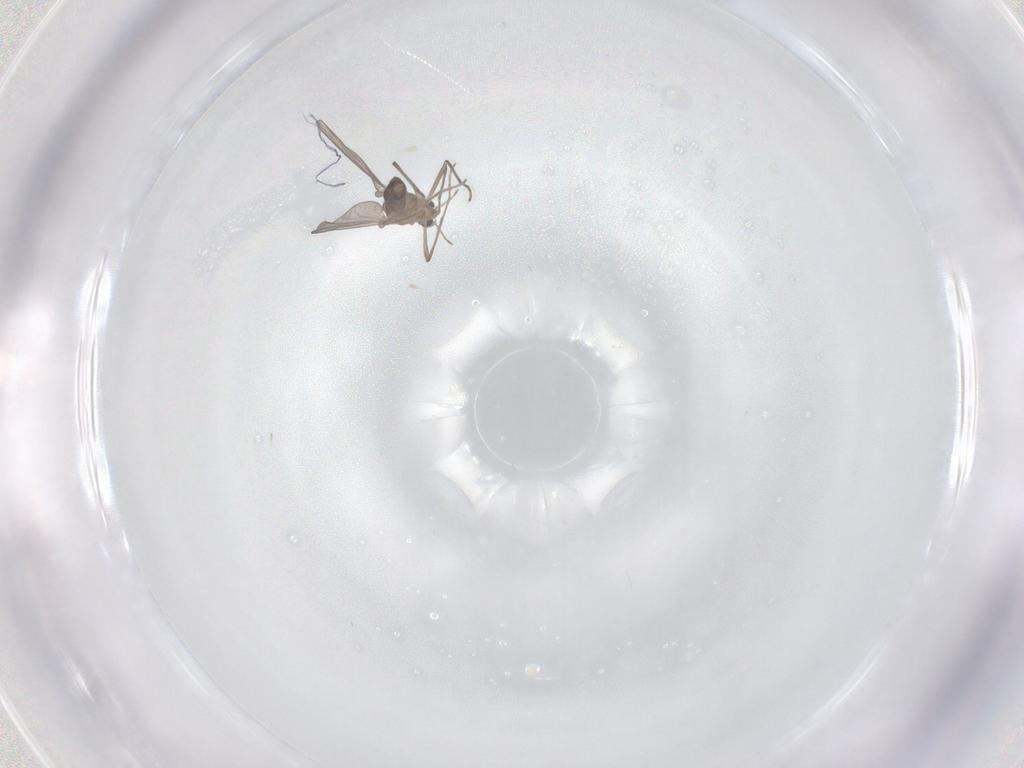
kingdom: Animalia
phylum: Arthropoda
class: Insecta
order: Diptera
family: Chironomidae
